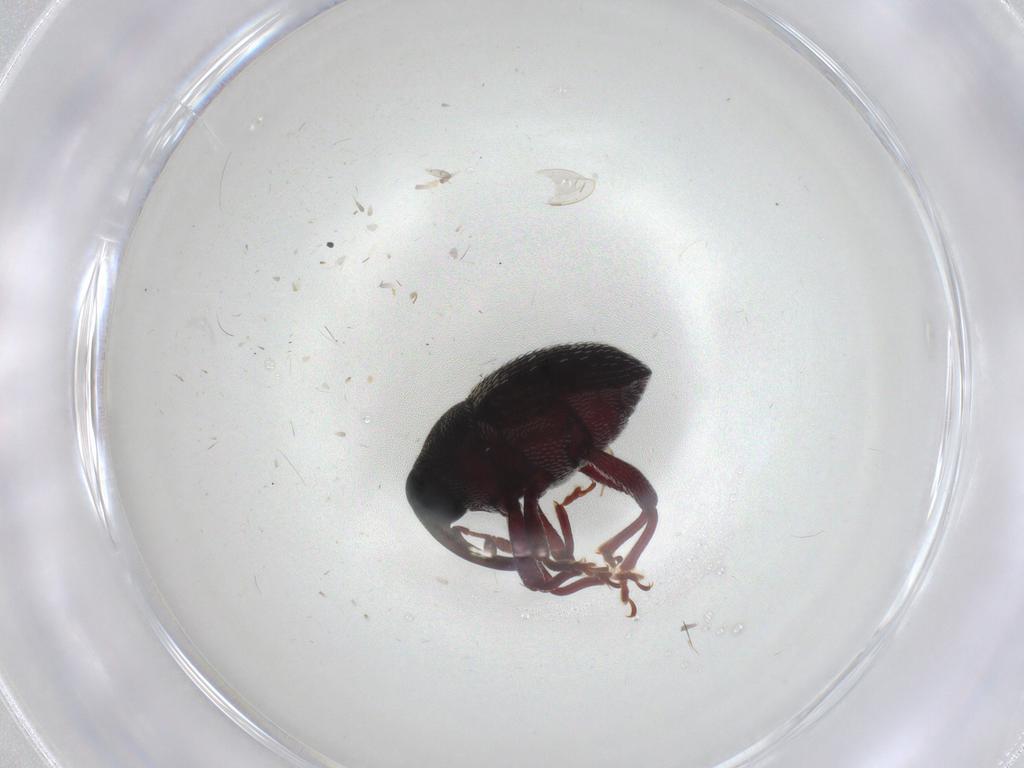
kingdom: Animalia
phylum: Arthropoda
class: Insecta
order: Coleoptera
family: Curculionidae
